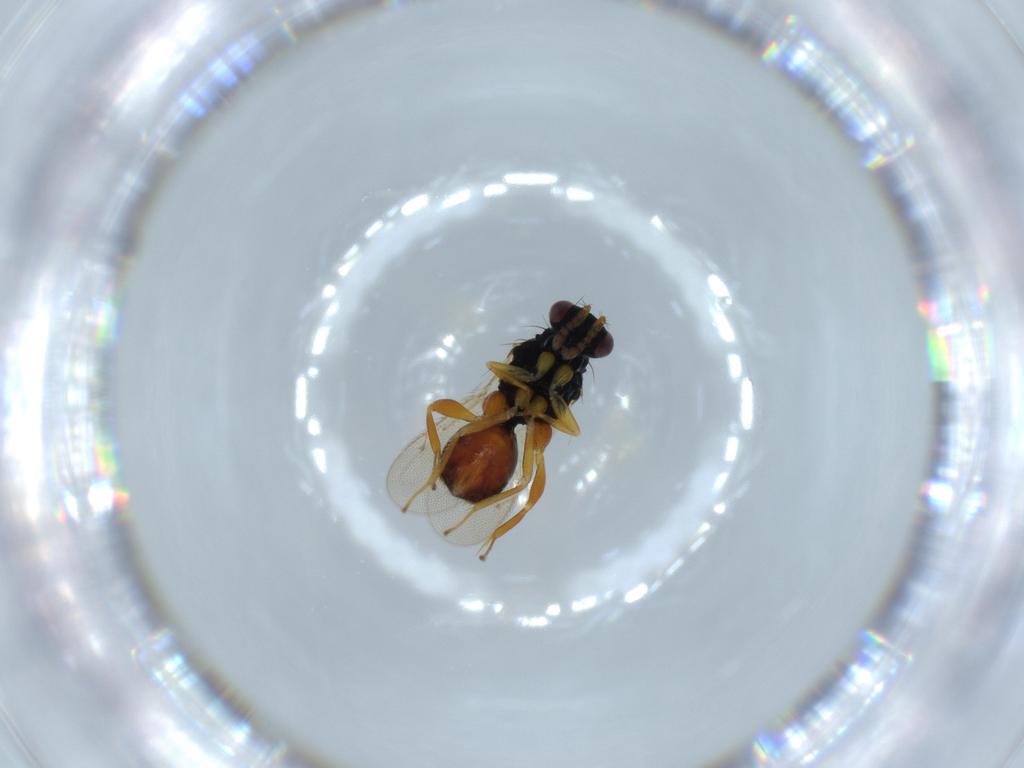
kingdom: Animalia
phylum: Arthropoda
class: Insecta
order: Hymenoptera
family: Eulophidae
